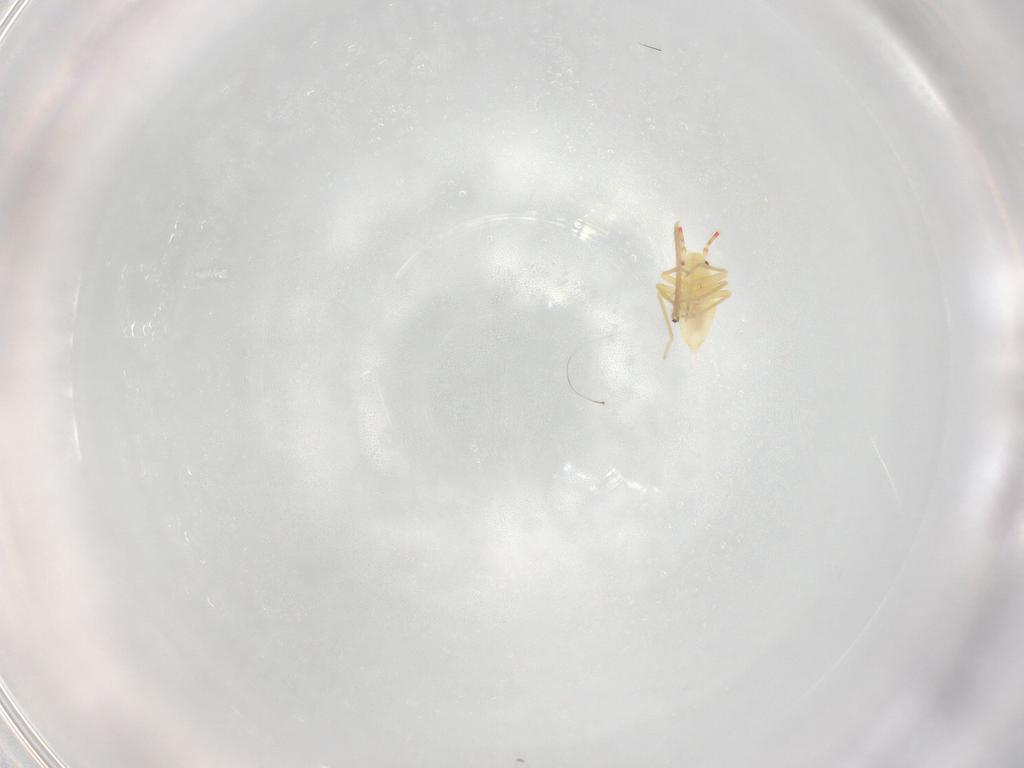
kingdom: Animalia
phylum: Arthropoda
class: Insecta
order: Hemiptera
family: Miridae
